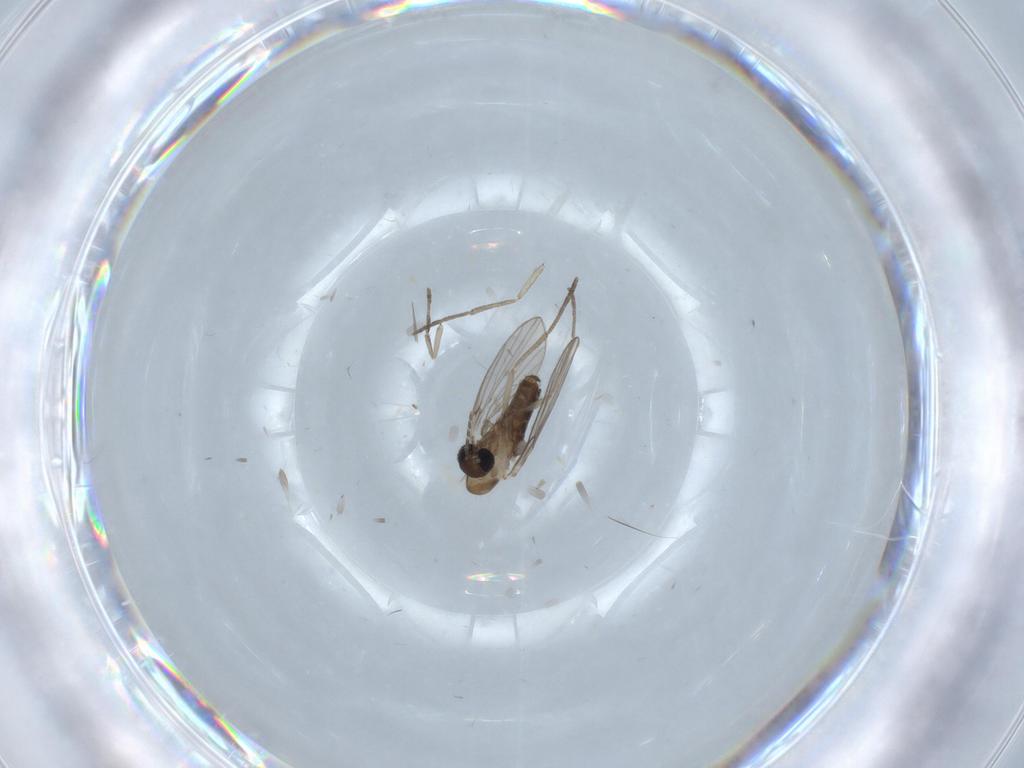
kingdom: Animalia
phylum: Arthropoda
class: Insecta
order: Diptera
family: Psychodidae
